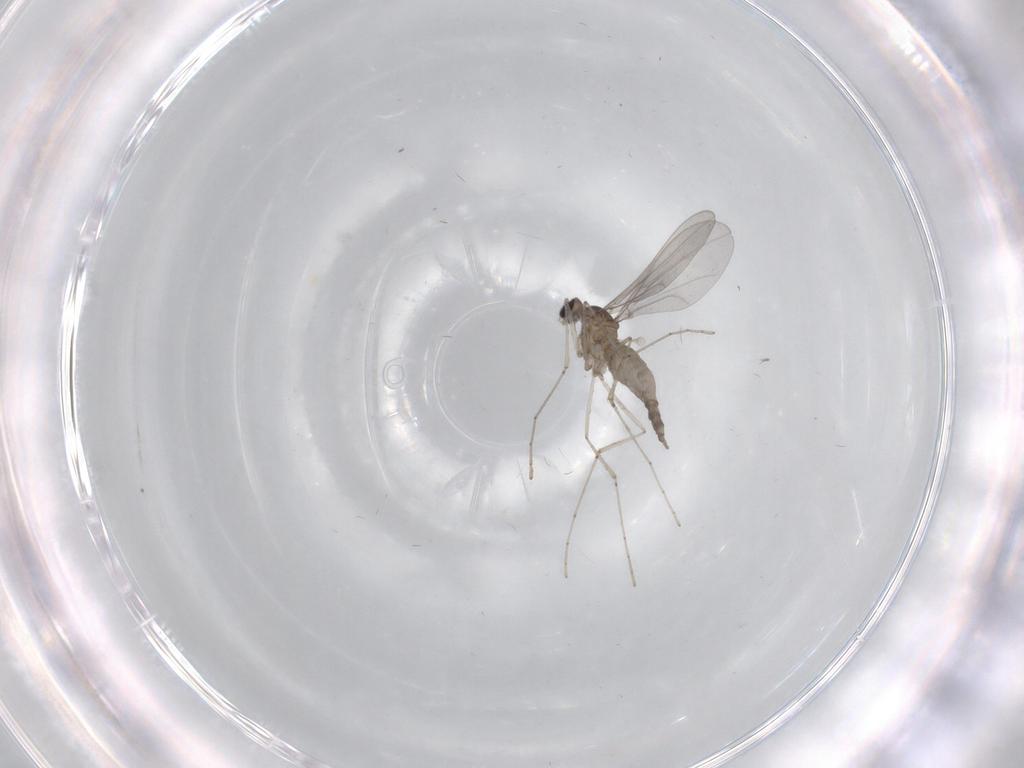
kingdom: Animalia
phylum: Arthropoda
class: Insecta
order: Diptera
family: Cecidomyiidae
